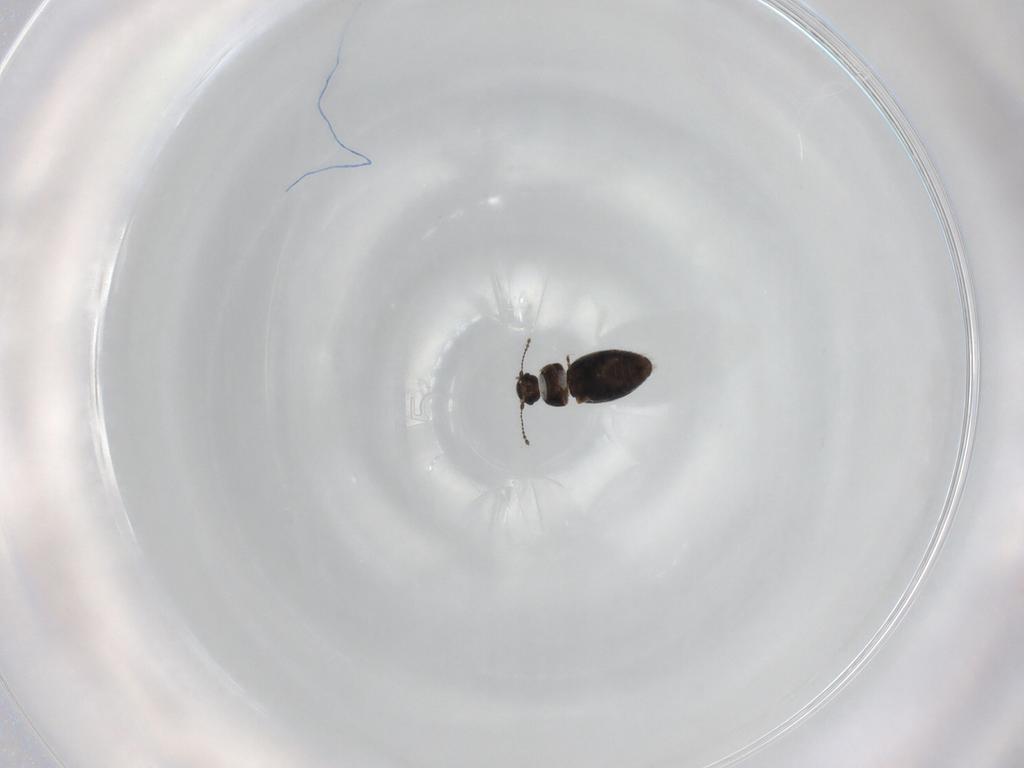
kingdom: Animalia
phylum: Arthropoda
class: Insecta
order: Coleoptera
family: Ptiliidae
